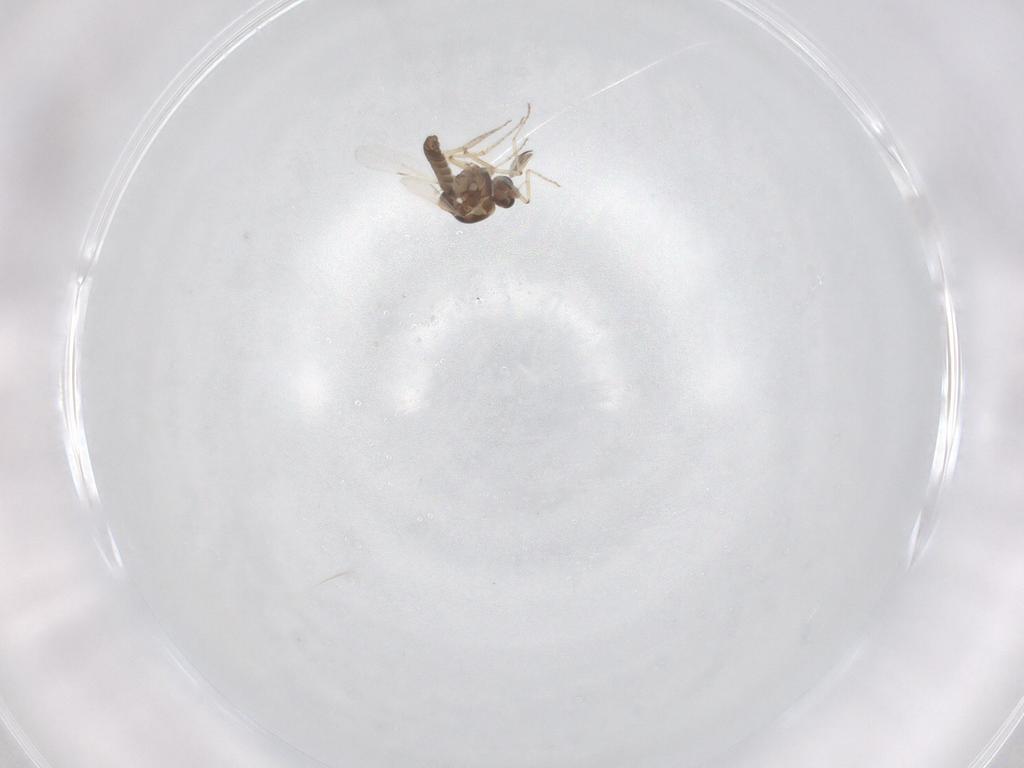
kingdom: Animalia
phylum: Arthropoda
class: Insecta
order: Diptera
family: Ceratopogonidae
